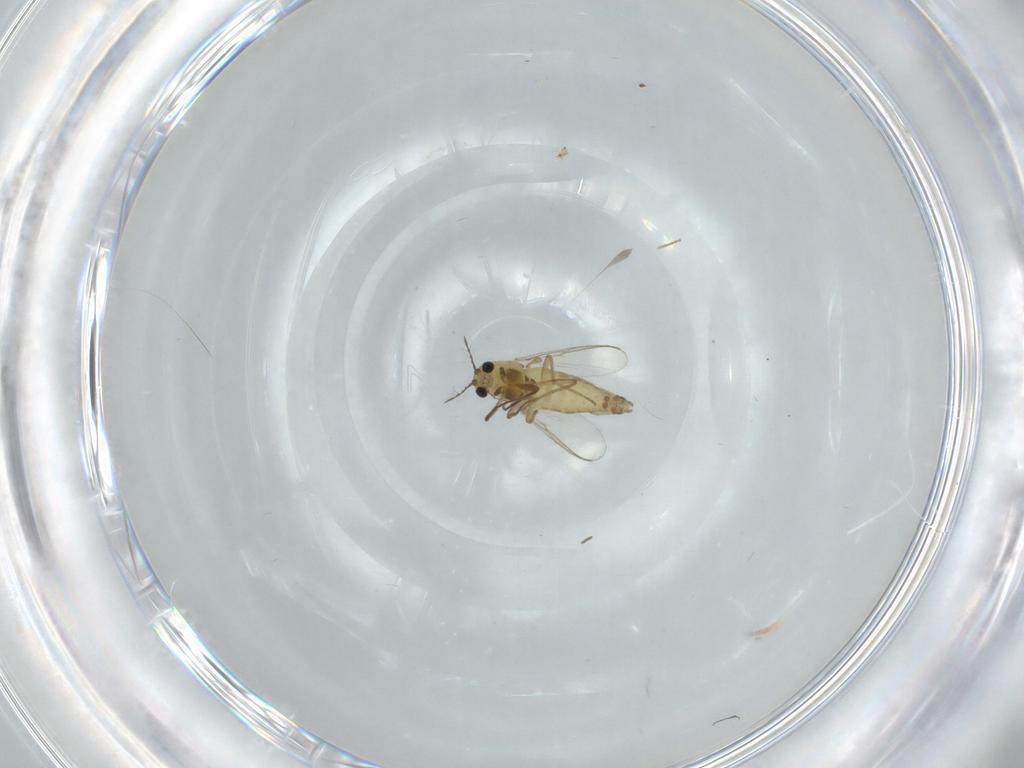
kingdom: Animalia
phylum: Arthropoda
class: Insecta
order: Diptera
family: Chironomidae
